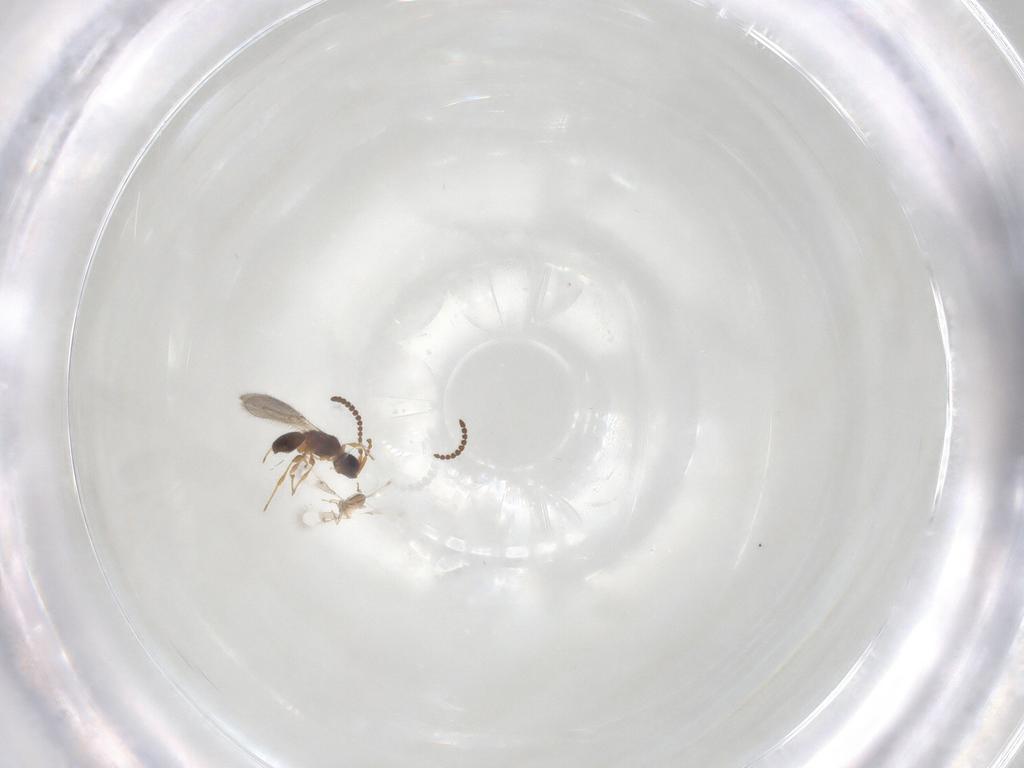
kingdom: Animalia
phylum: Arthropoda
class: Insecta
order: Hymenoptera
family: Diapriidae
